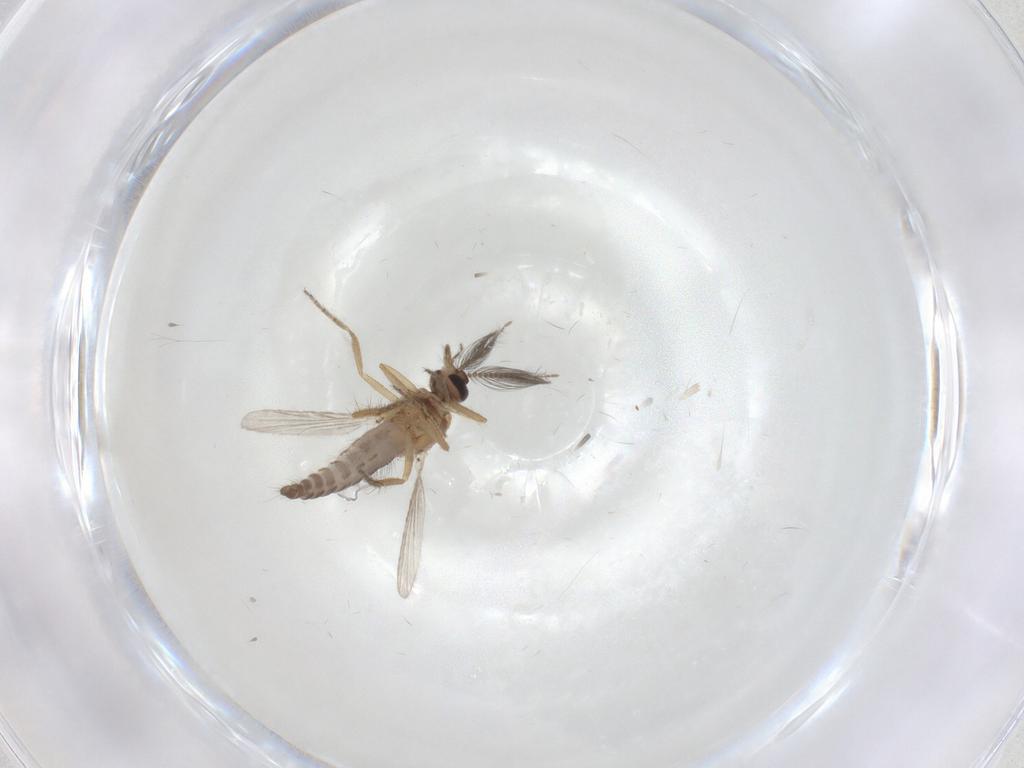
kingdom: Animalia
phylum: Arthropoda
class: Insecta
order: Diptera
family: Ceratopogonidae
